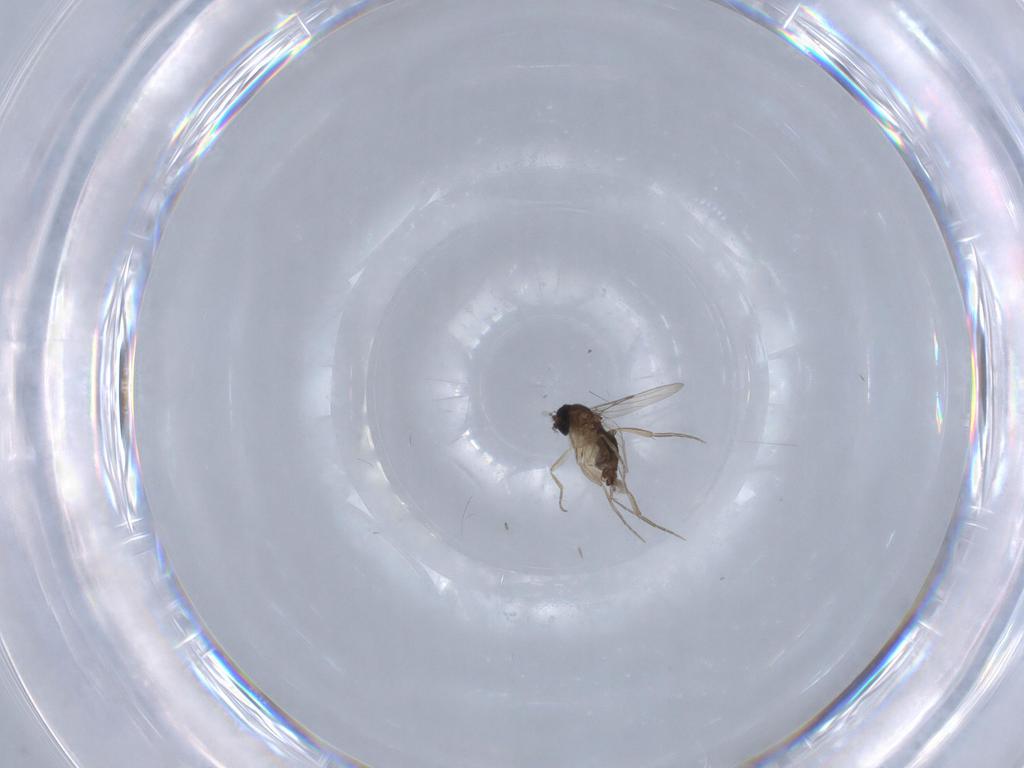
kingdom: Animalia
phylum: Arthropoda
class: Insecta
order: Diptera
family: Phoridae
